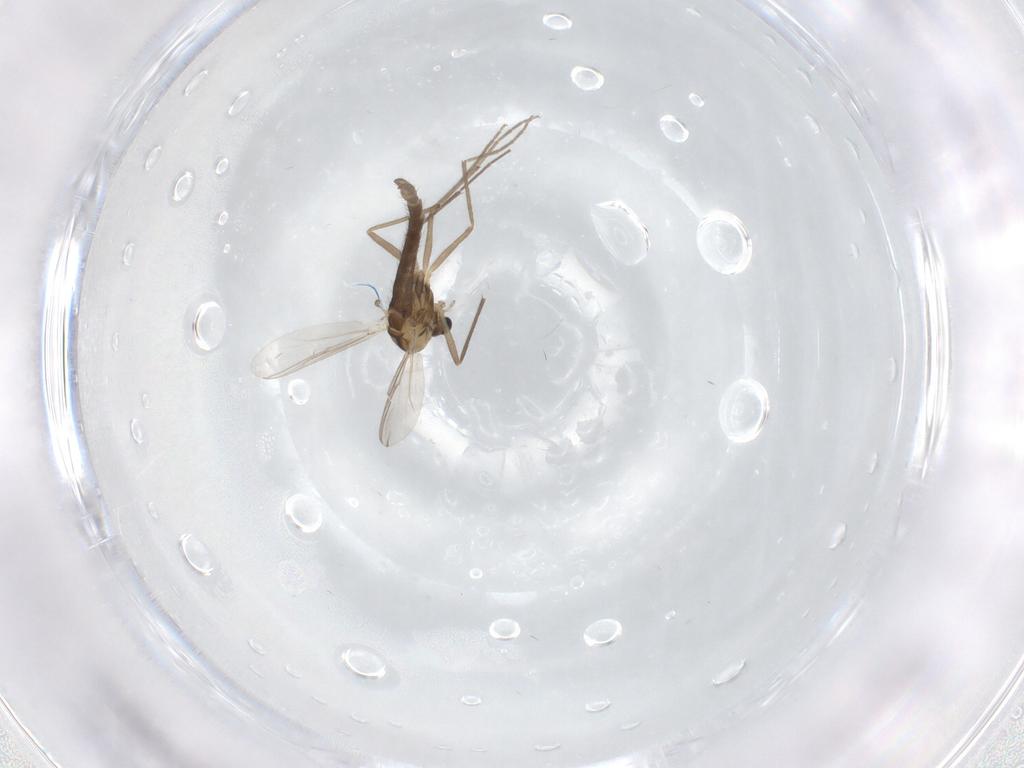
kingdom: Animalia
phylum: Arthropoda
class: Insecta
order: Diptera
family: Chironomidae
